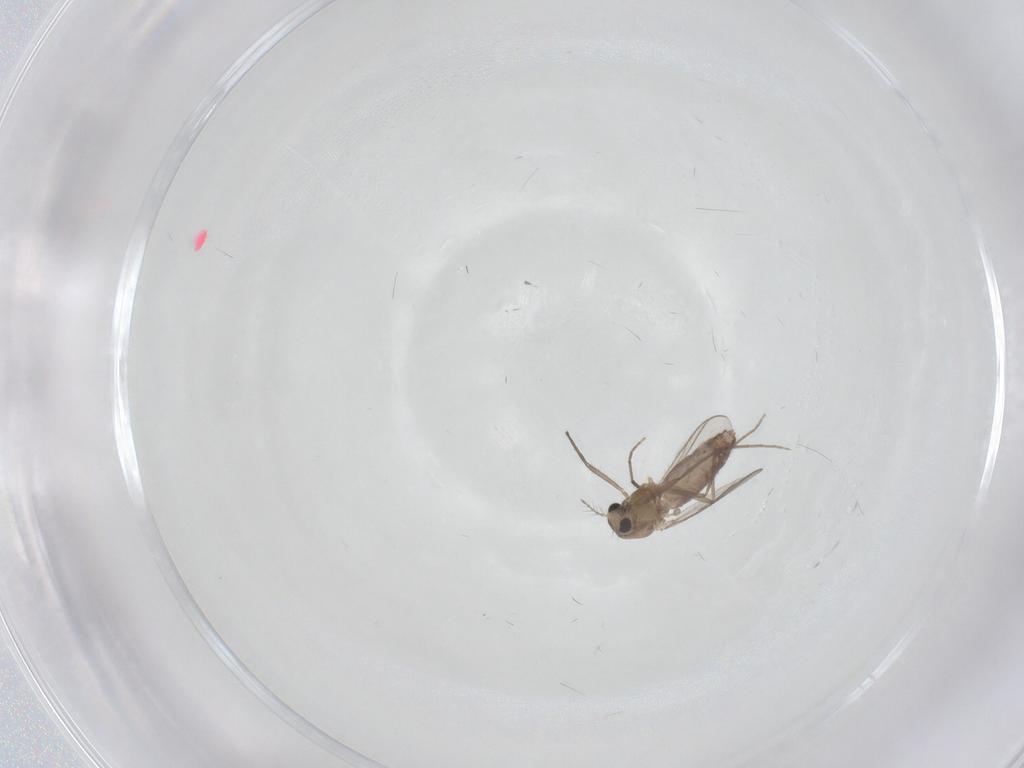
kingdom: Animalia
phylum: Arthropoda
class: Insecta
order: Diptera
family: Chironomidae
